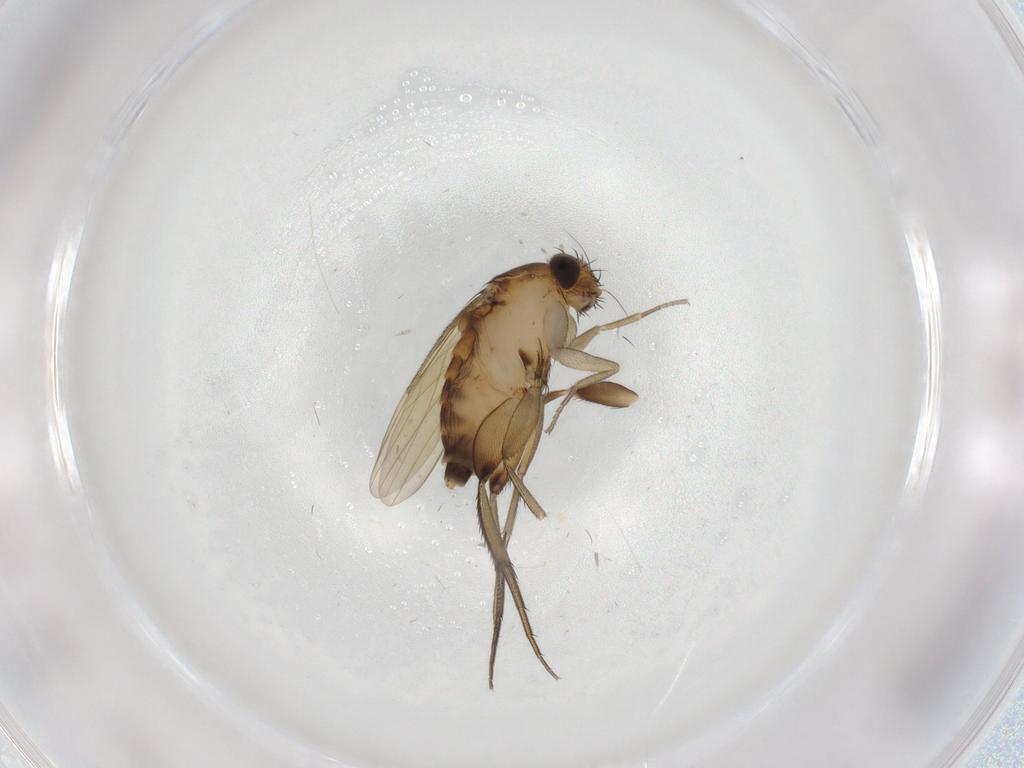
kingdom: Animalia
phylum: Arthropoda
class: Insecta
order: Diptera
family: Phoridae
